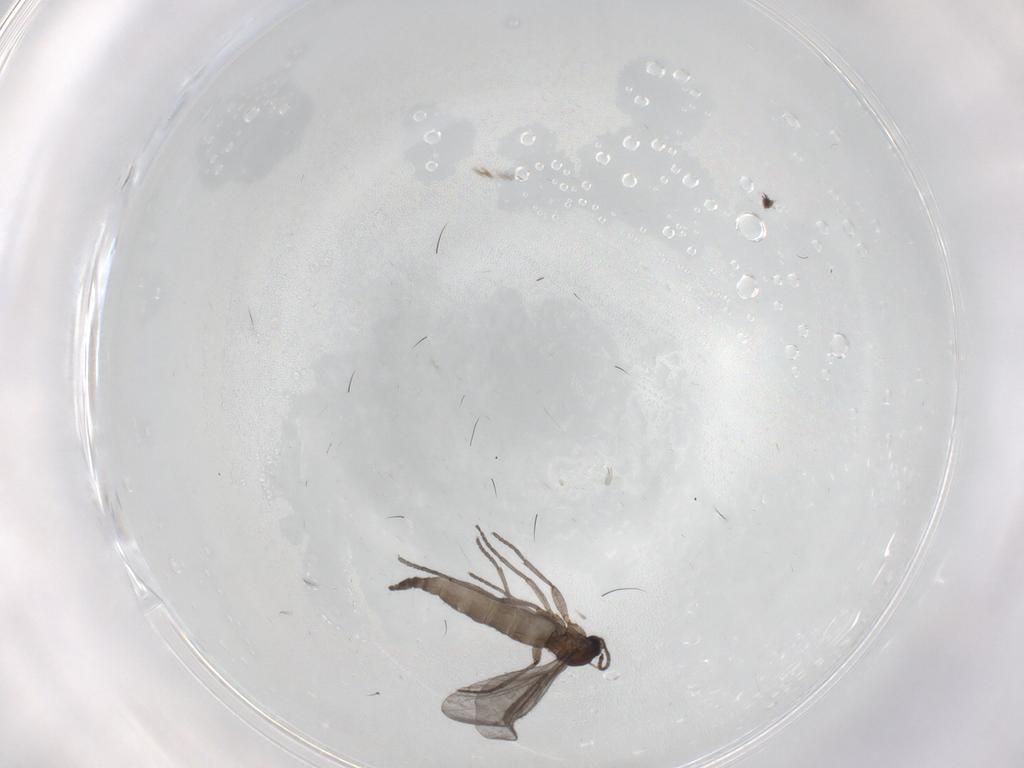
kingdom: Animalia
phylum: Arthropoda
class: Insecta
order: Diptera
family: Sciaridae
